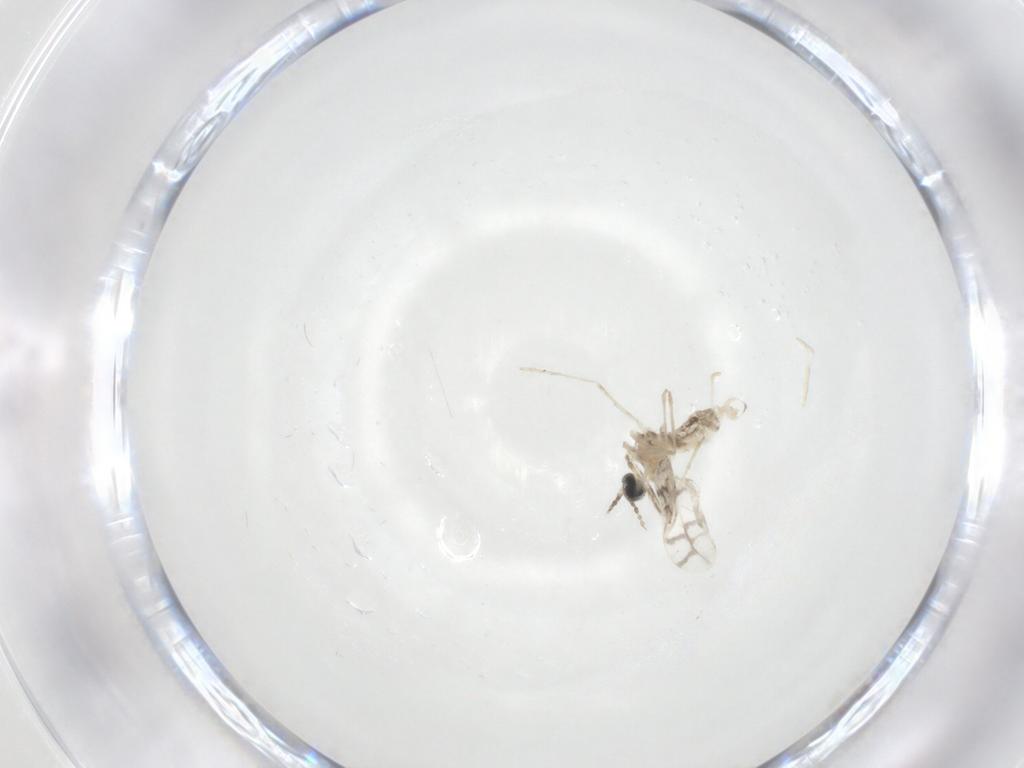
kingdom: Animalia
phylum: Arthropoda
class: Insecta
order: Diptera
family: Cecidomyiidae
